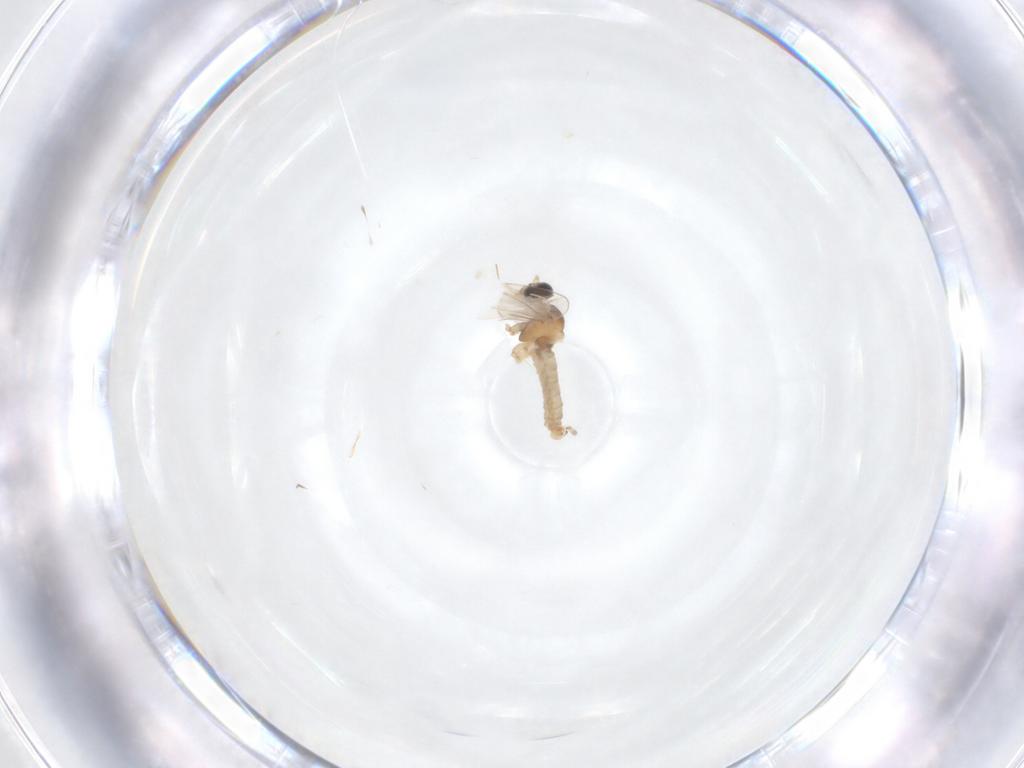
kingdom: Animalia
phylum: Arthropoda
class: Insecta
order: Diptera
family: Cecidomyiidae
